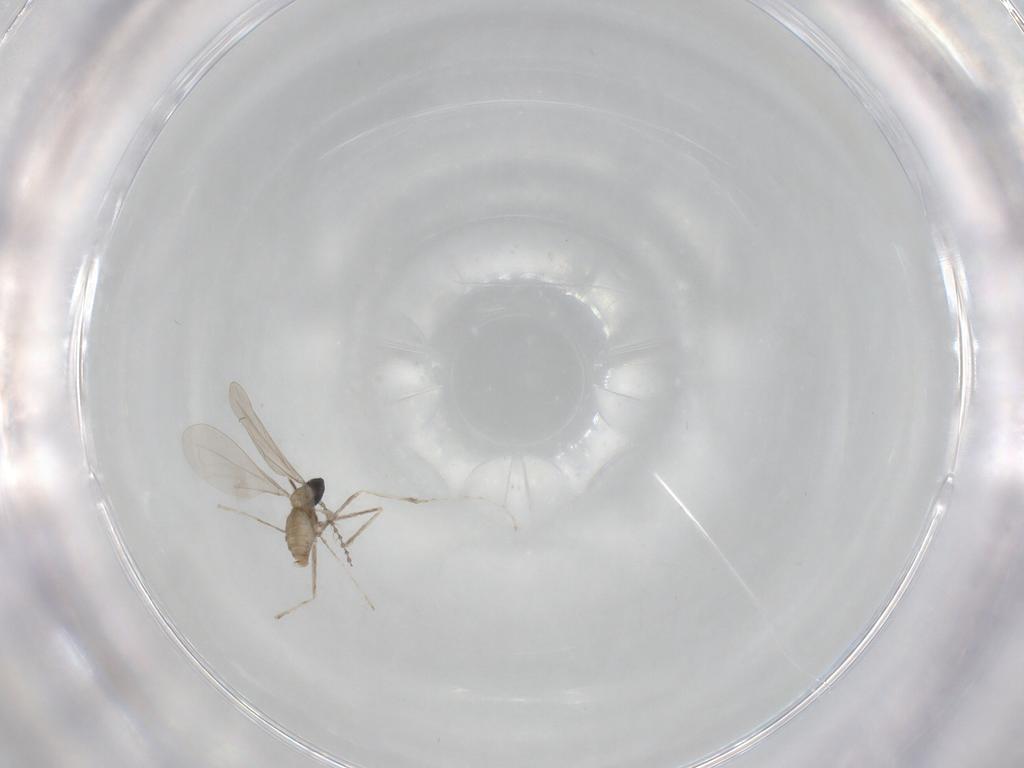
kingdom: Animalia
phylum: Arthropoda
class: Insecta
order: Diptera
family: Cecidomyiidae
